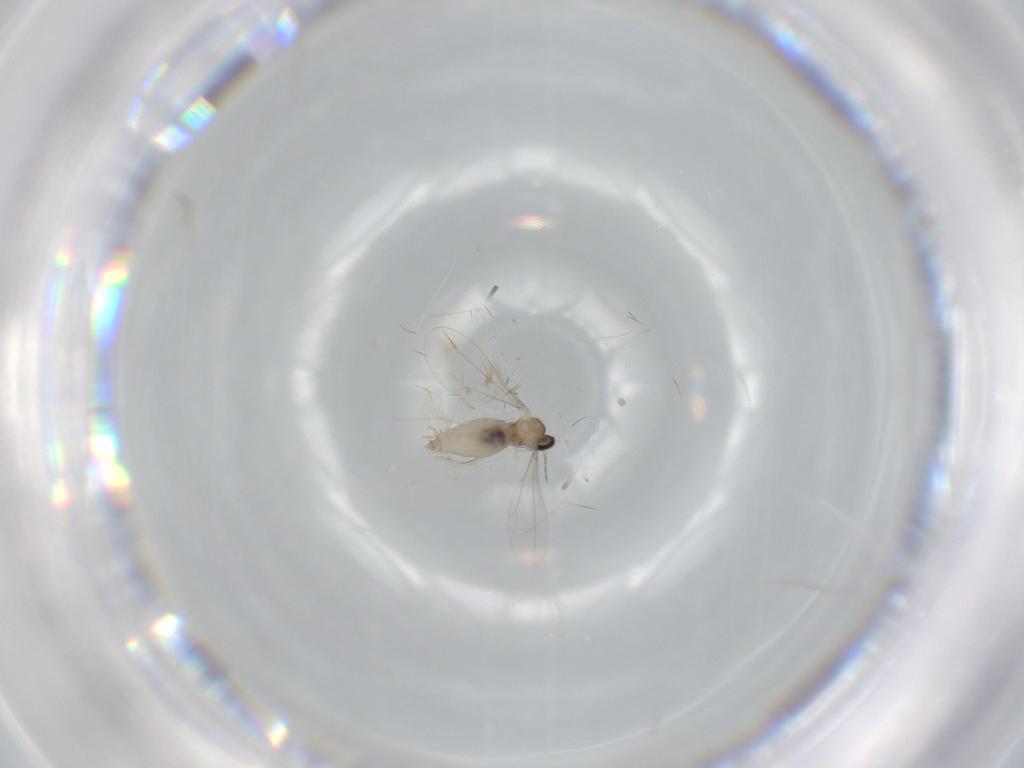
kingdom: Animalia
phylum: Arthropoda
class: Insecta
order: Diptera
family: Cecidomyiidae
